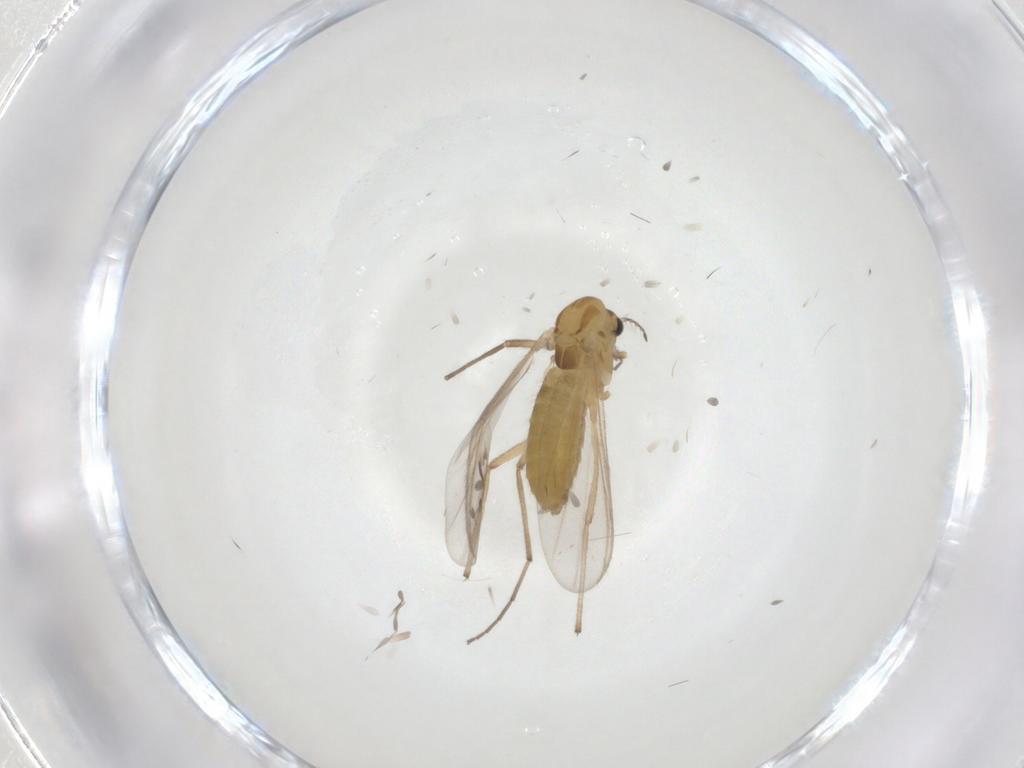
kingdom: Animalia
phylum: Arthropoda
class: Insecta
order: Diptera
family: Chironomidae
